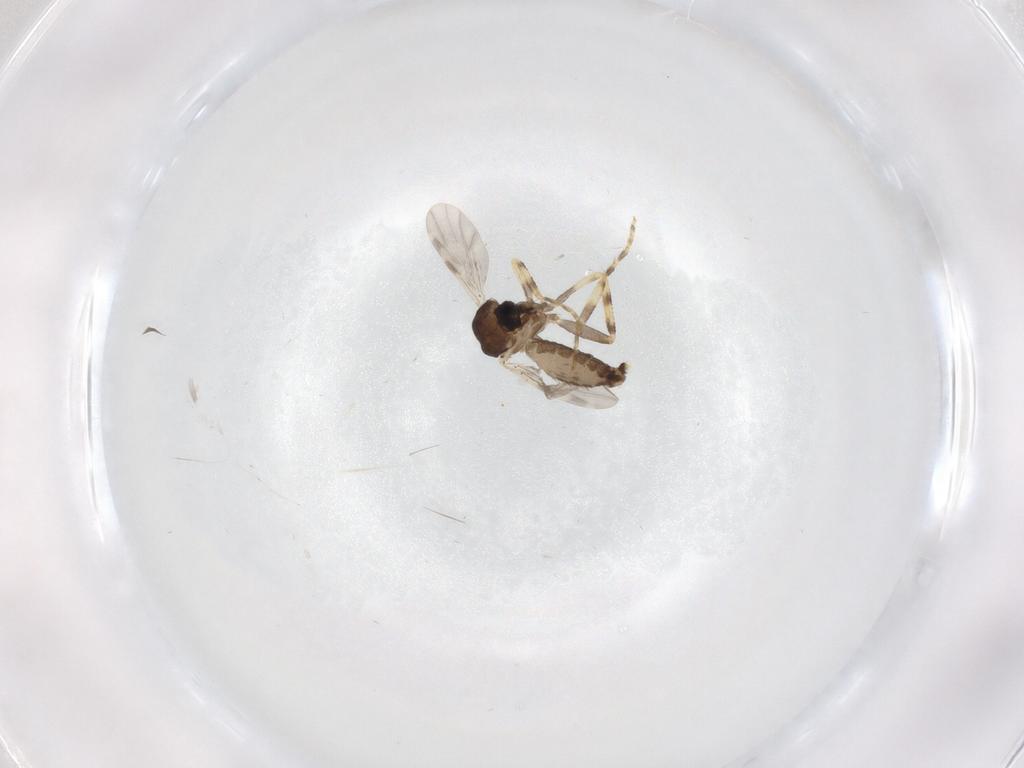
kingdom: Animalia
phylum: Arthropoda
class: Insecta
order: Diptera
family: Ceratopogonidae
